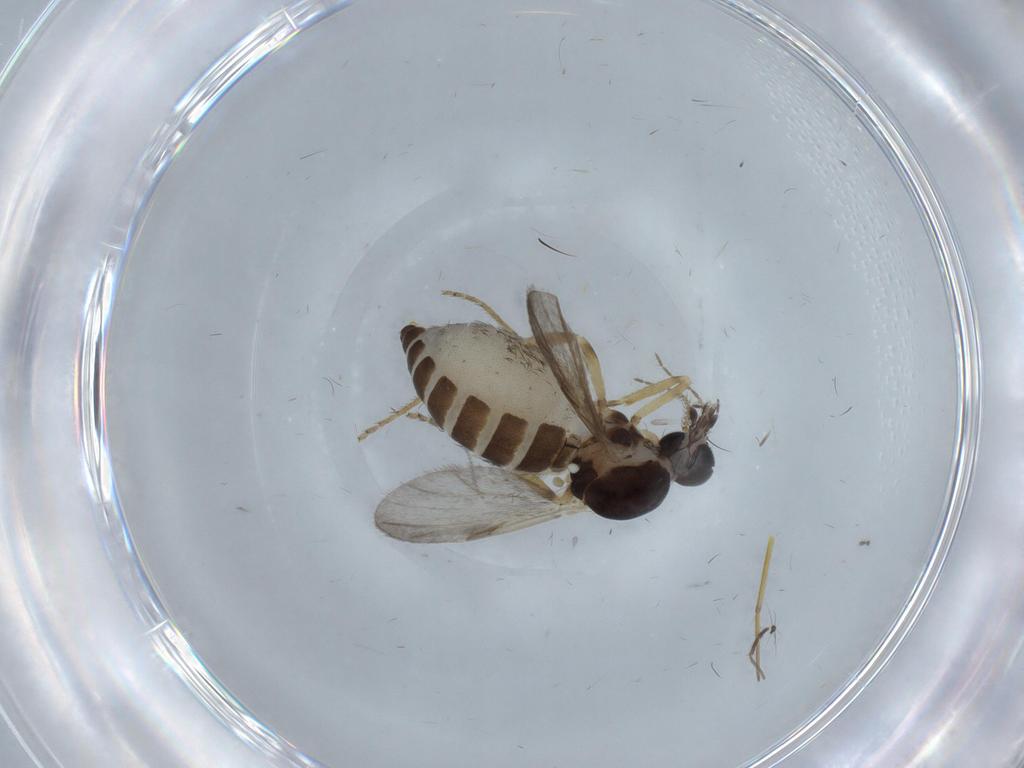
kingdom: Animalia
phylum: Arthropoda
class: Insecta
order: Diptera
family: Ceratopogonidae
